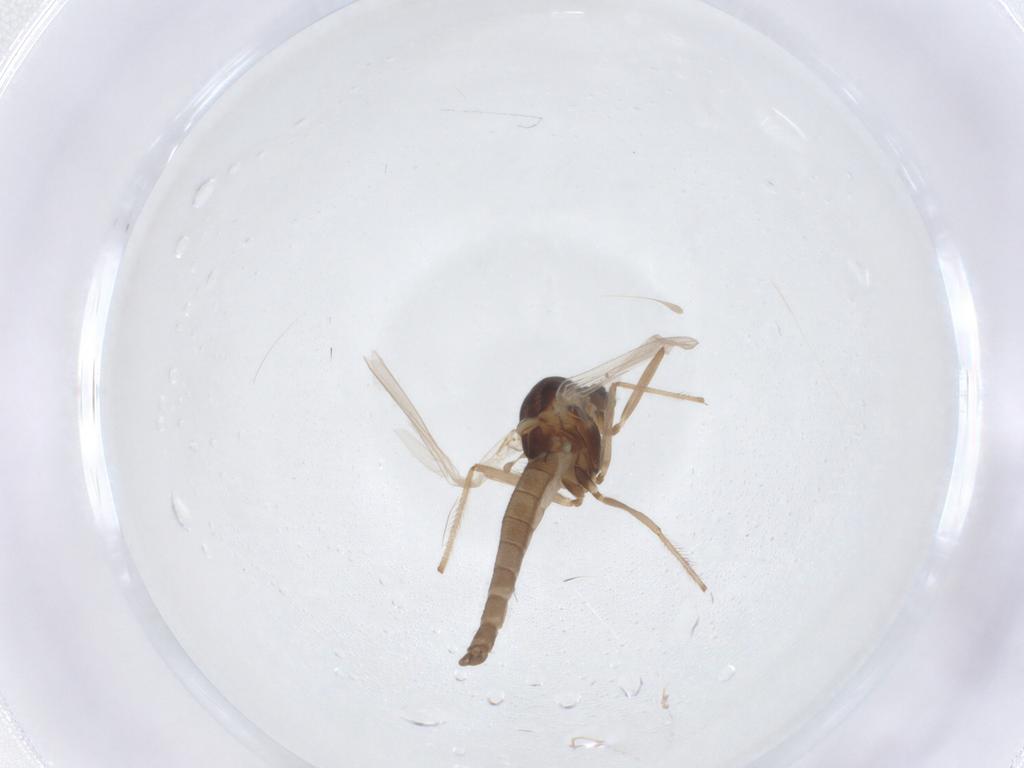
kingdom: Animalia
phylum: Arthropoda
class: Insecta
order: Diptera
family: Chironomidae
